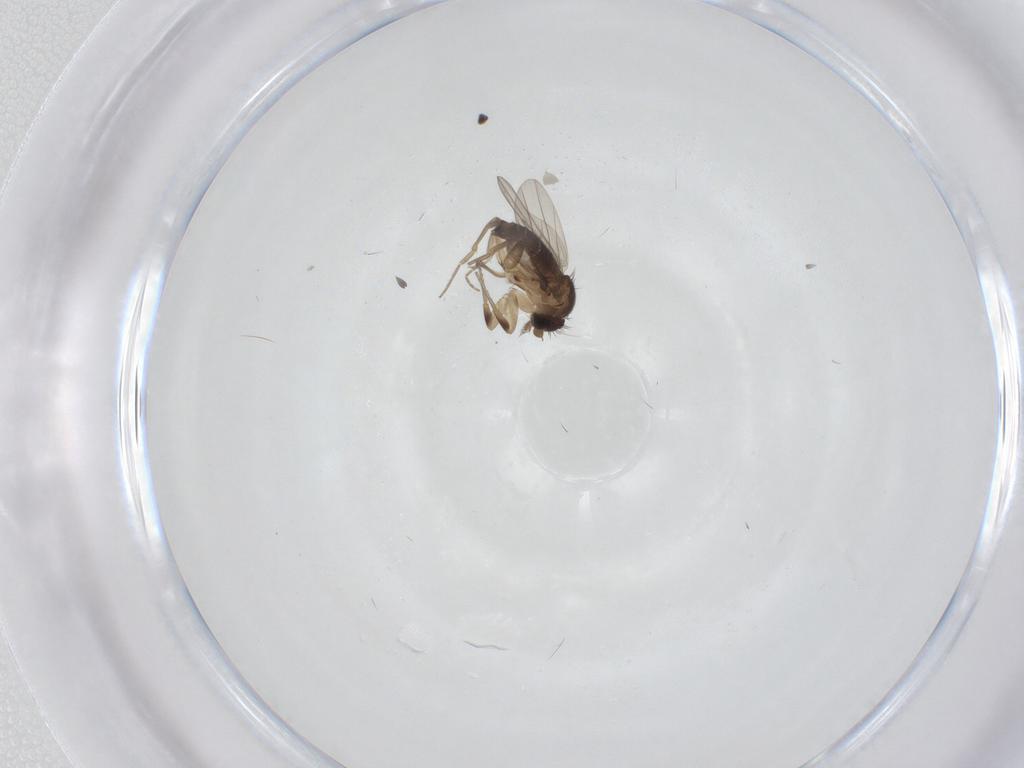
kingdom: Animalia
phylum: Arthropoda
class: Insecta
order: Diptera
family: Phoridae
